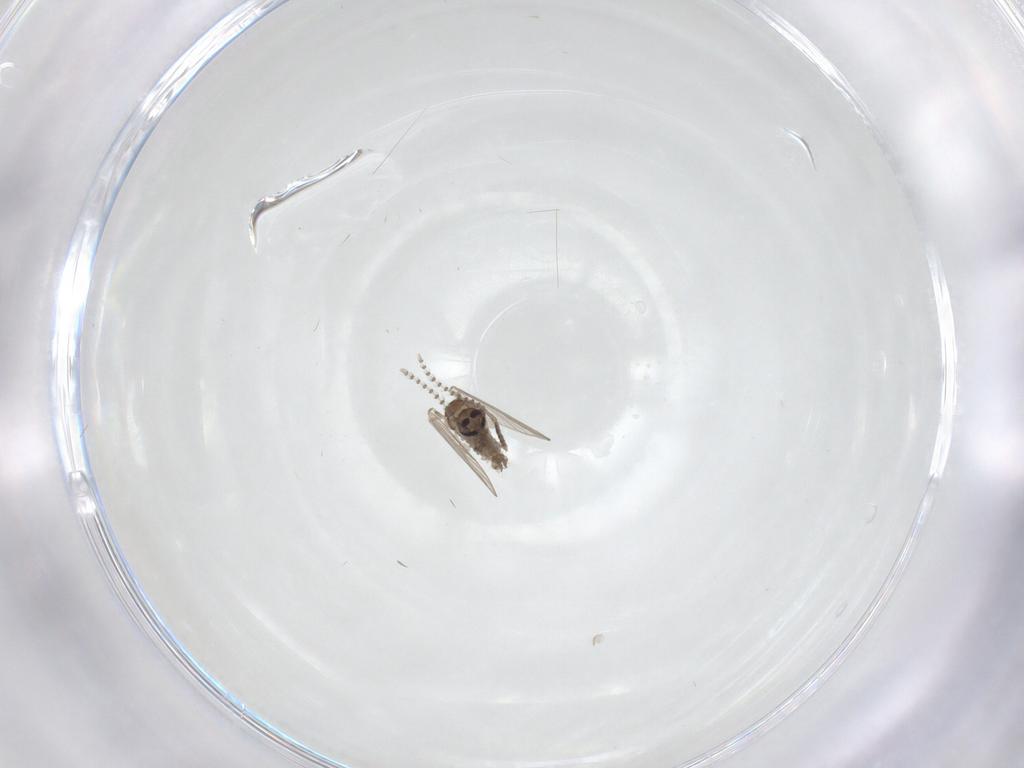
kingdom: Animalia
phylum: Arthropoda
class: Insecta
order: Diptera
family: Psychodidae
